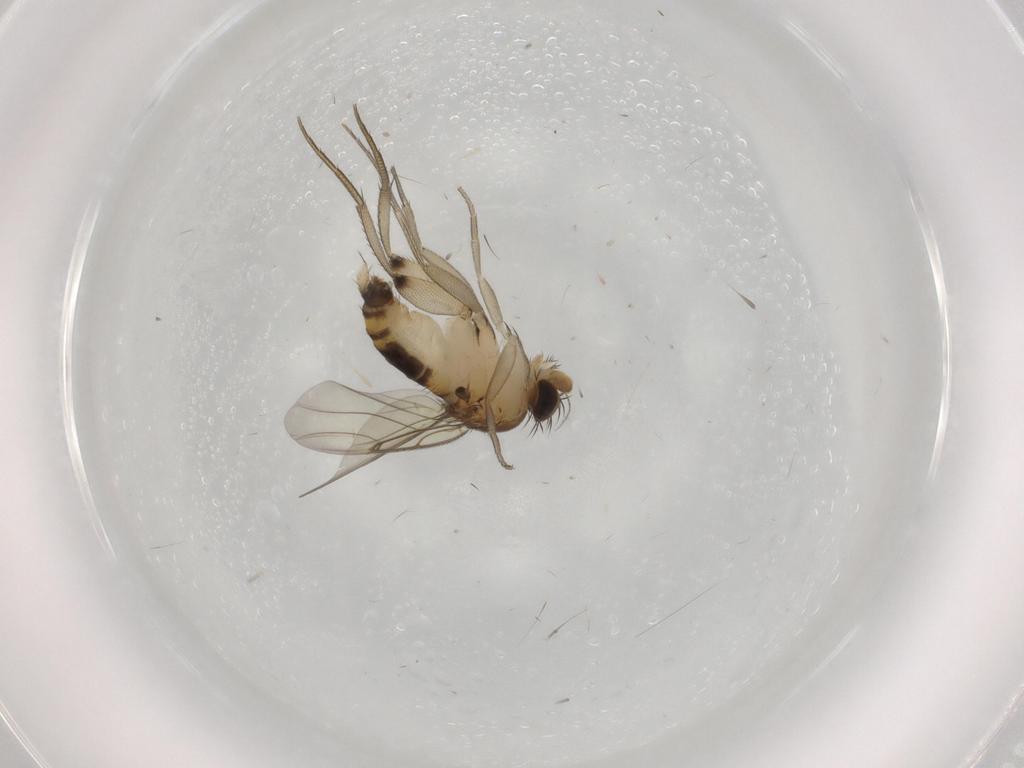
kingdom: Animalia
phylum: Arthropoda
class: Insecta
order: Diptera
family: Phoridae
